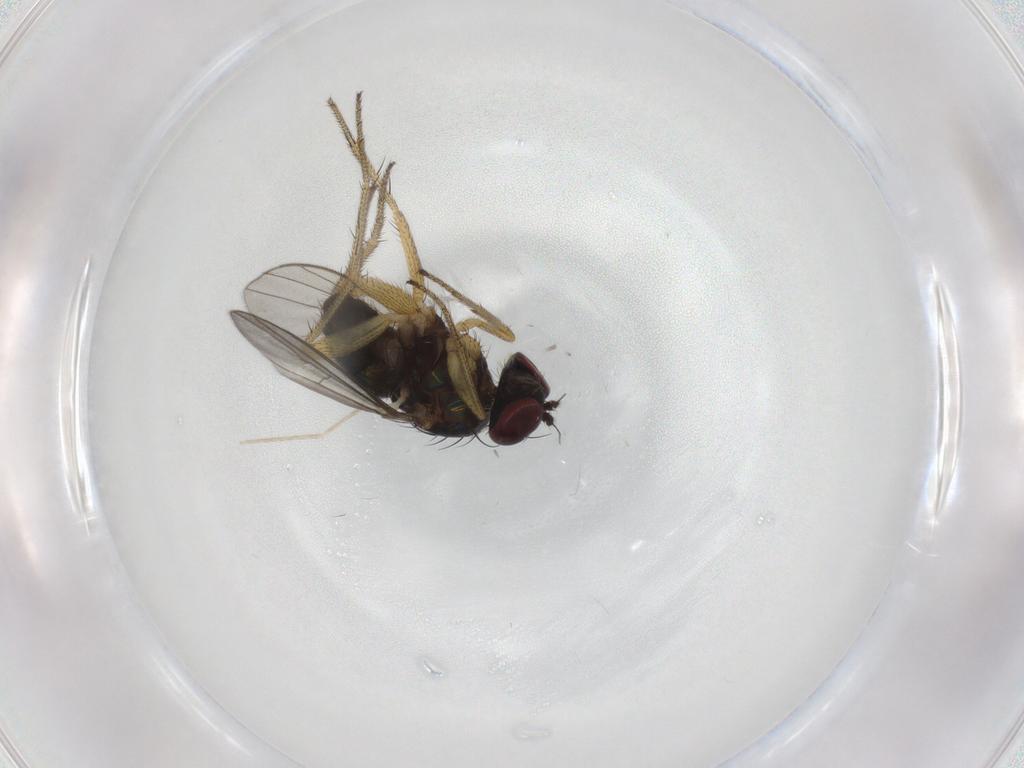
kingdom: Animalia
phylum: Arthropoda
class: Insecta
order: Diptera
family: Chironomidae
